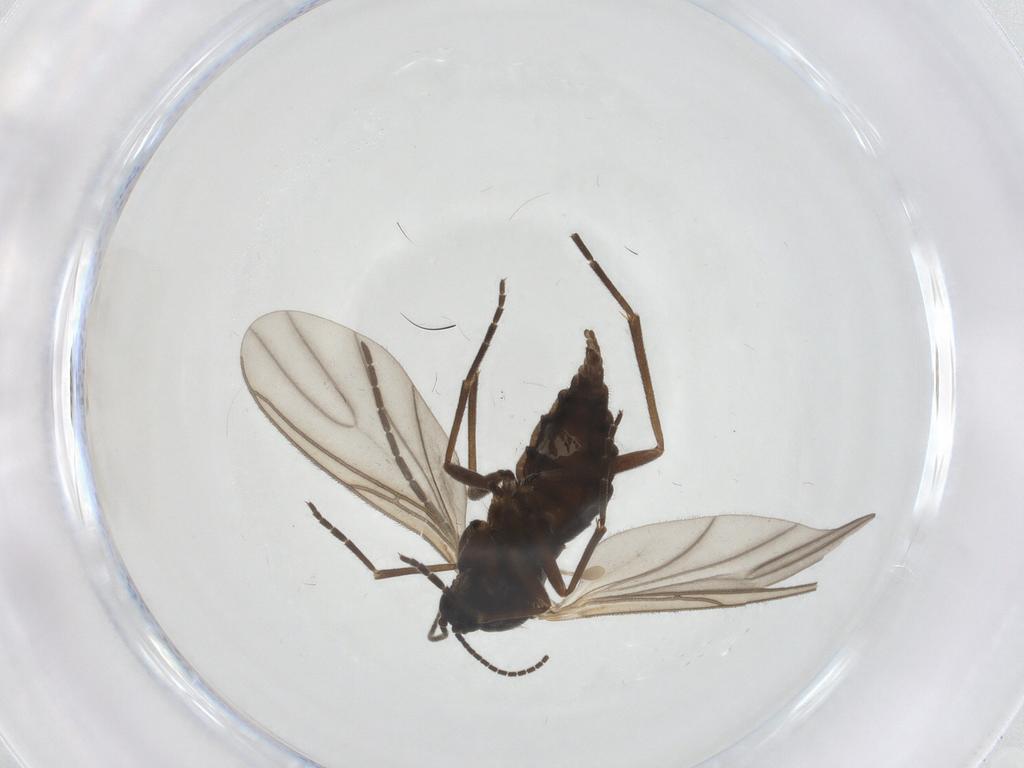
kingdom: Animalia
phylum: Arthropoda
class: Insecta
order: Diptera
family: Sciaridae
